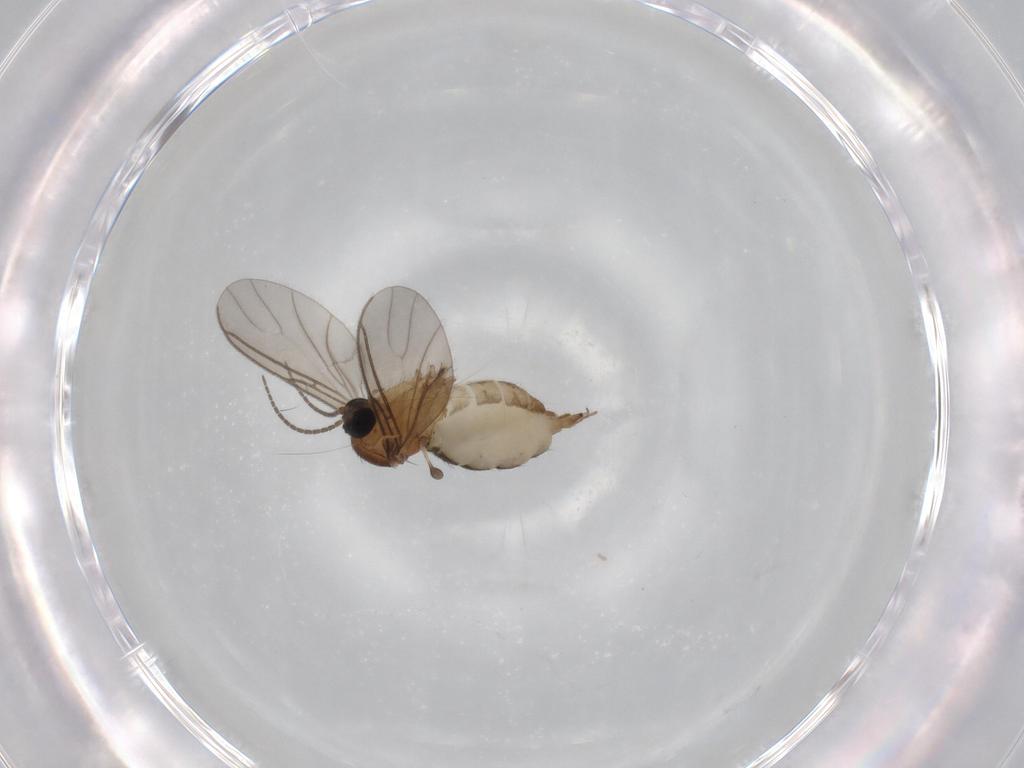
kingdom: Animalia
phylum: Arthropoda
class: Insecta
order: Diptera
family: Sciaridae
